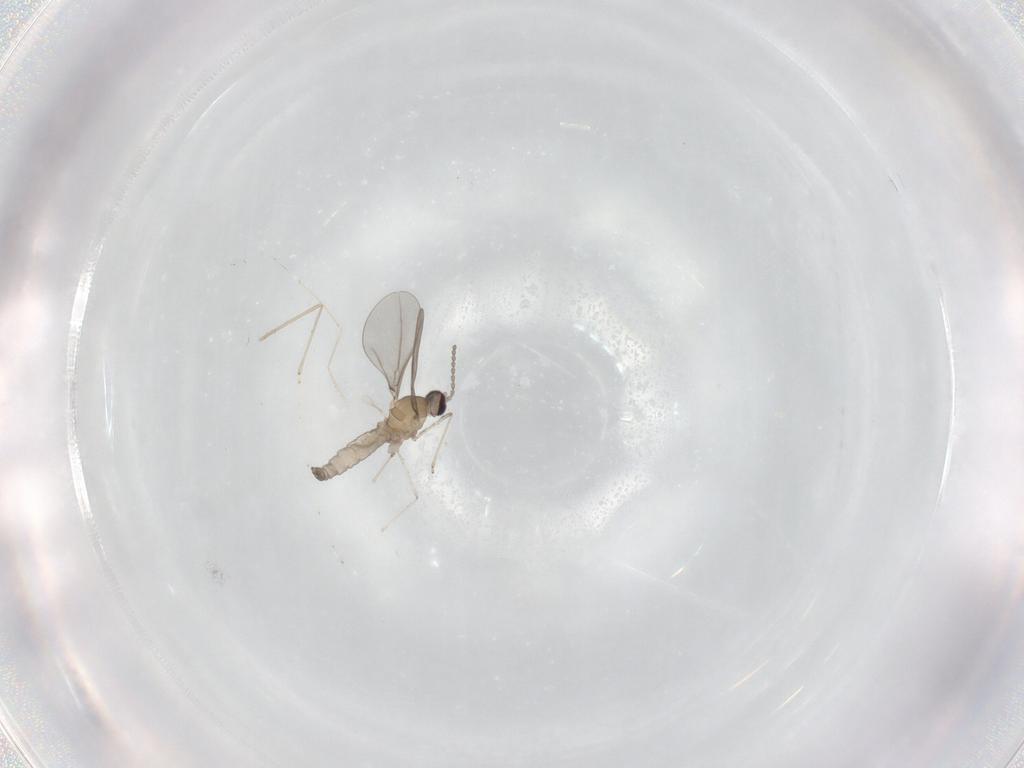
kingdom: Animalia
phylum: Arthropoda
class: Insecta
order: Diptera
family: Cecidomyiidae
